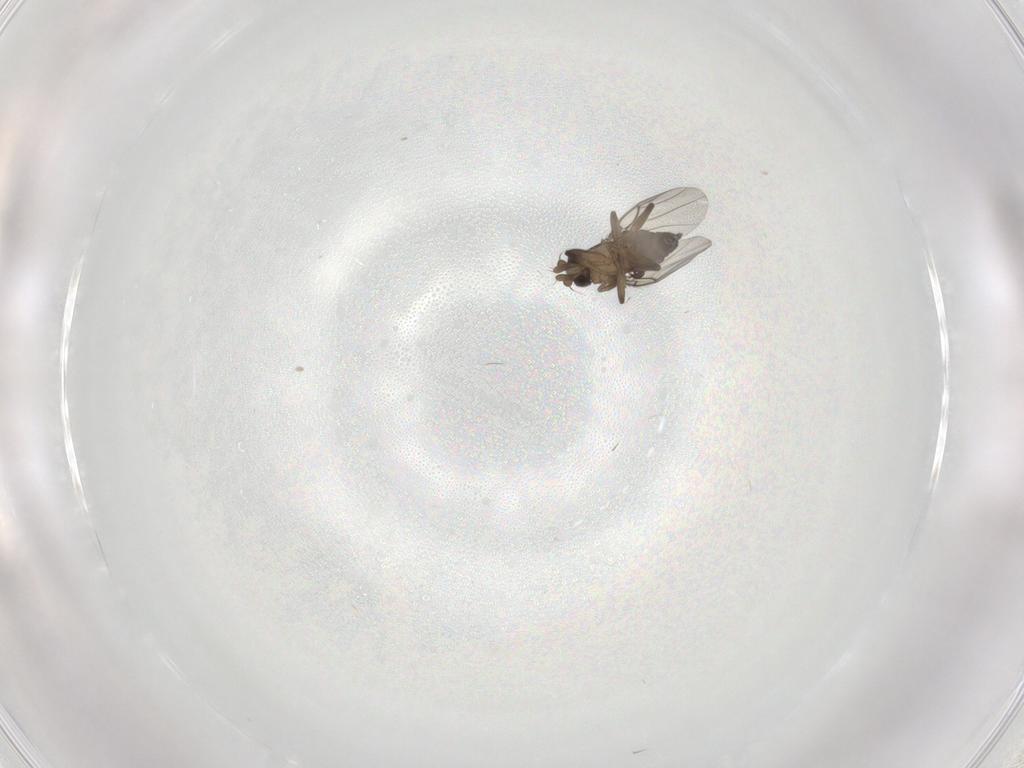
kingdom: Animalia
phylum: Arthropoda
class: Insecta
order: Diptera
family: Phoridae
